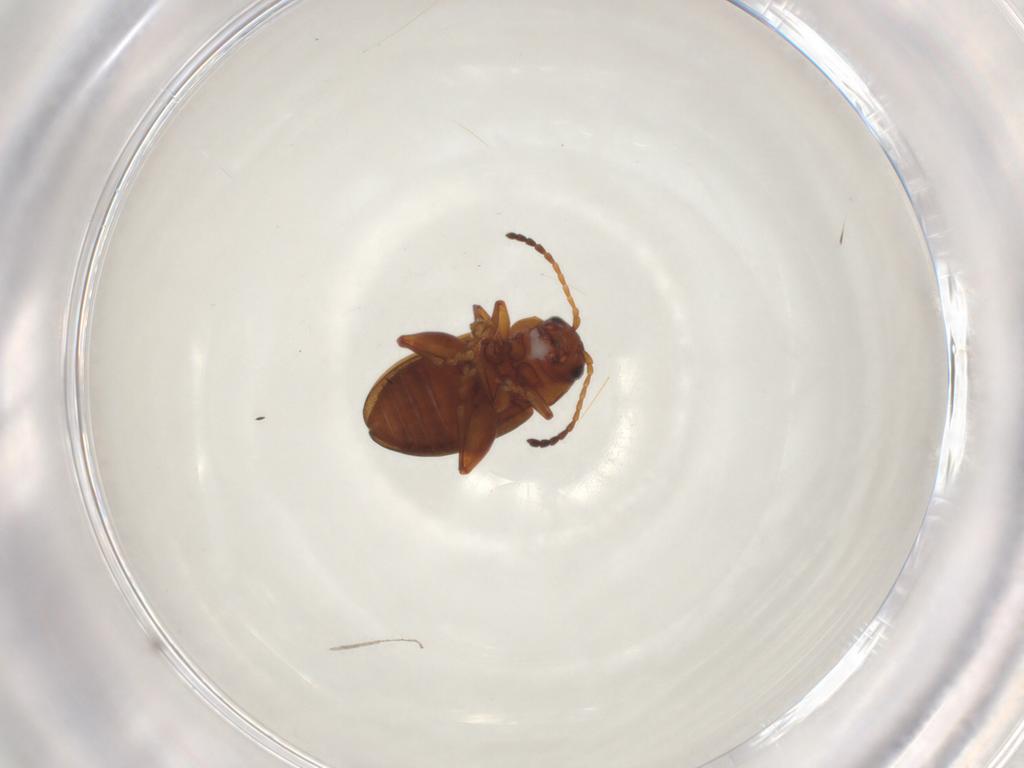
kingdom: Animalia
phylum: Arthropoda
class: Insecta
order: Coleoptera
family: Chrysomelidae
